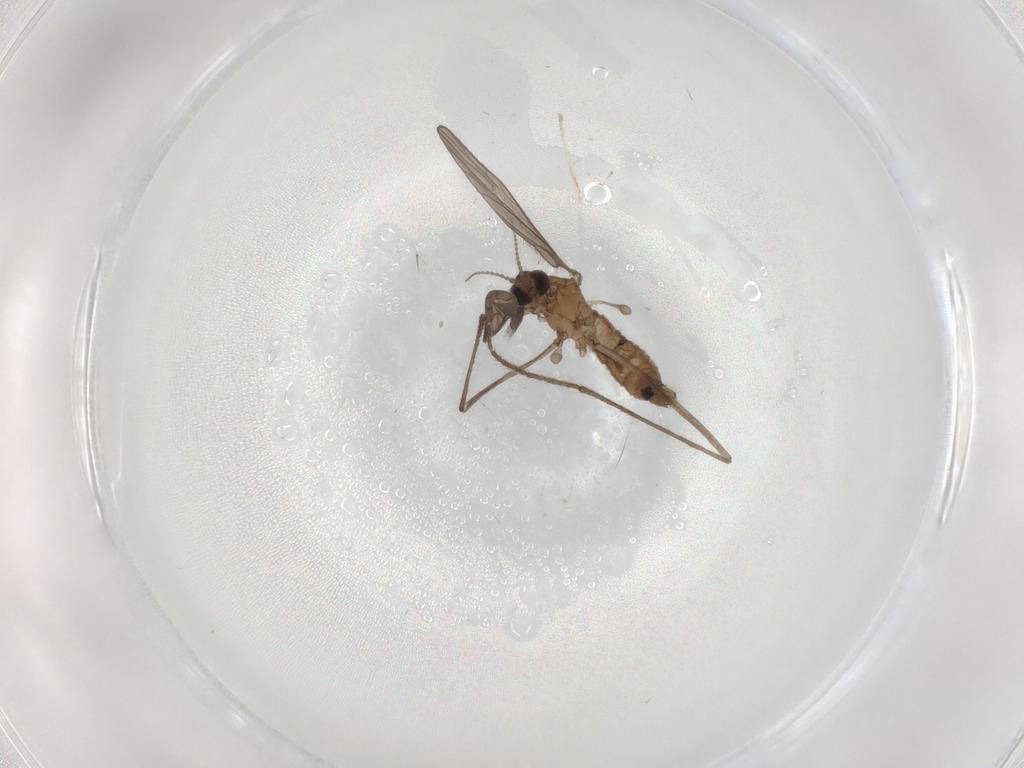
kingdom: Animalia
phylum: Arthropoda
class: Insecta
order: Diptera
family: Limoniidae
